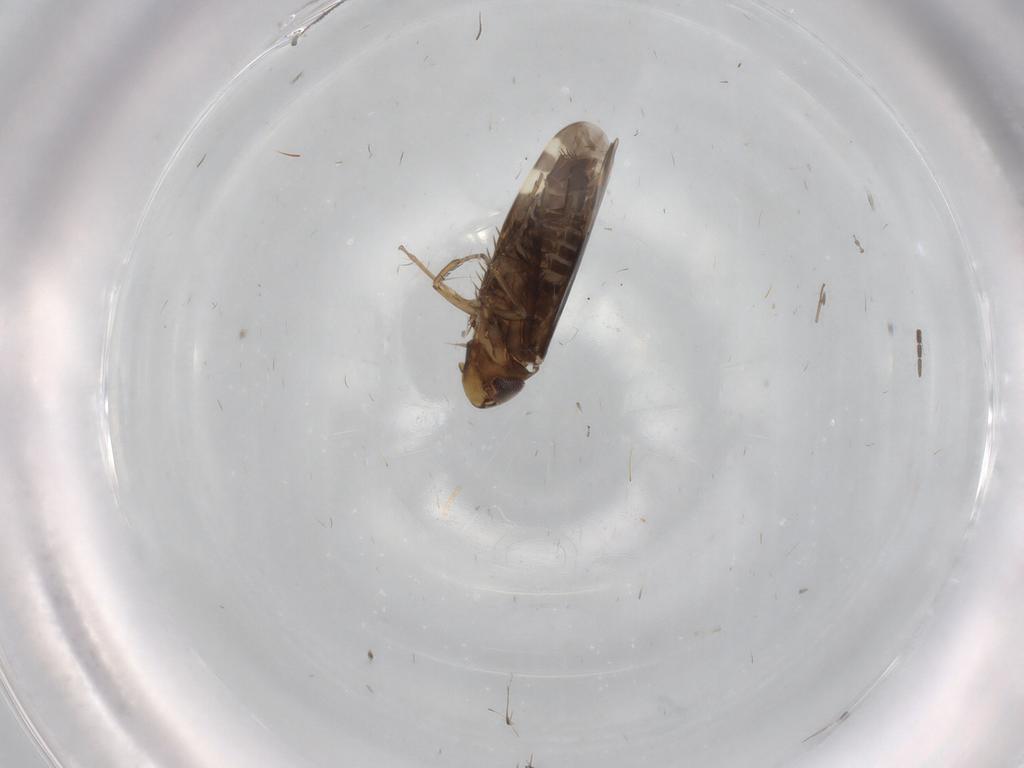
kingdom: Animalia
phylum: Arthropoda
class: Insecta
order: Hemiptera
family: Cicadellidae
